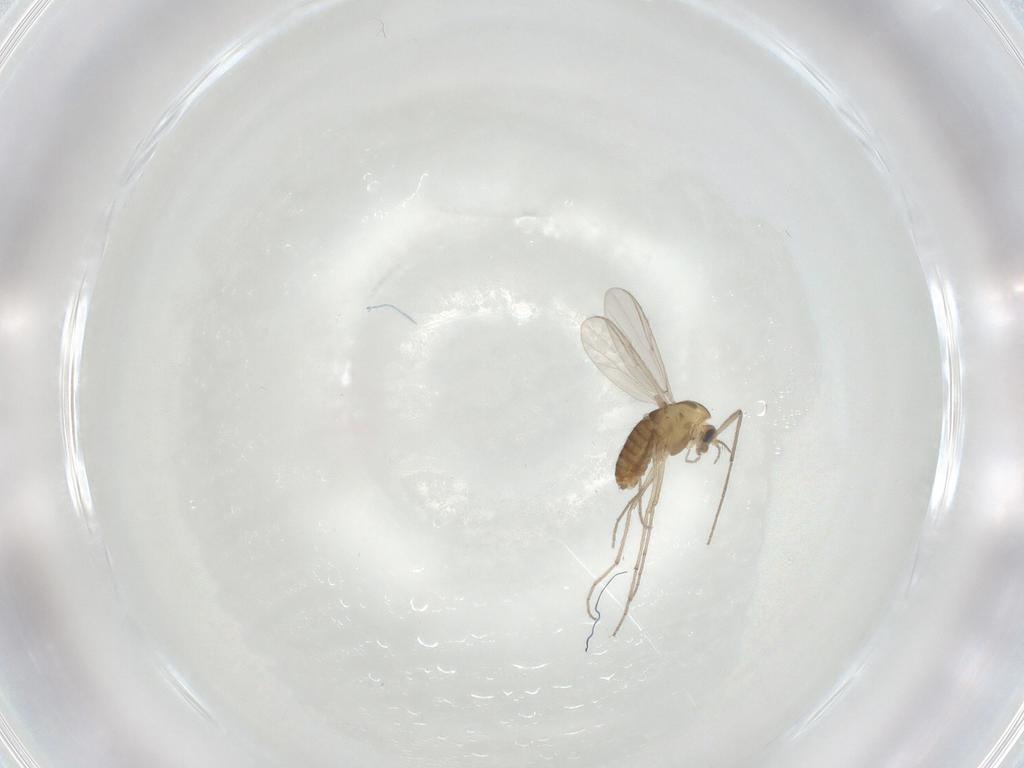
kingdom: Animalia
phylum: Arthropoda
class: Insecta
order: Diptera
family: Chironomidae
